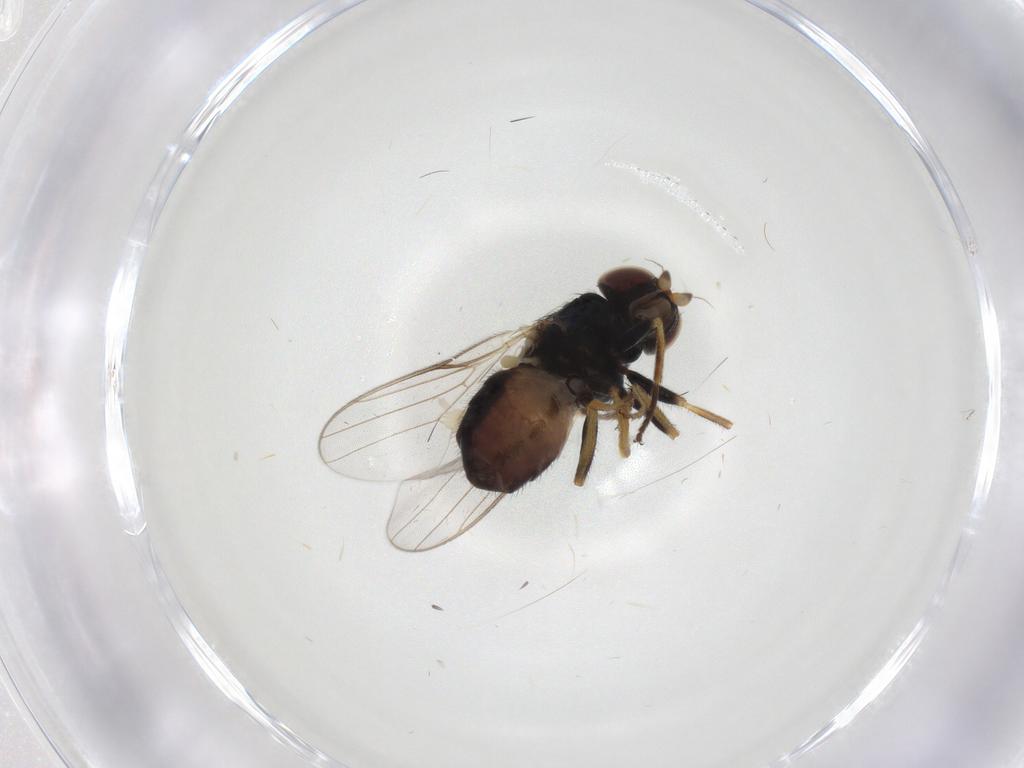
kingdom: Animalia
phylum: Arthropoda
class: Insecta
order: Diptera
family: Chloropidae
